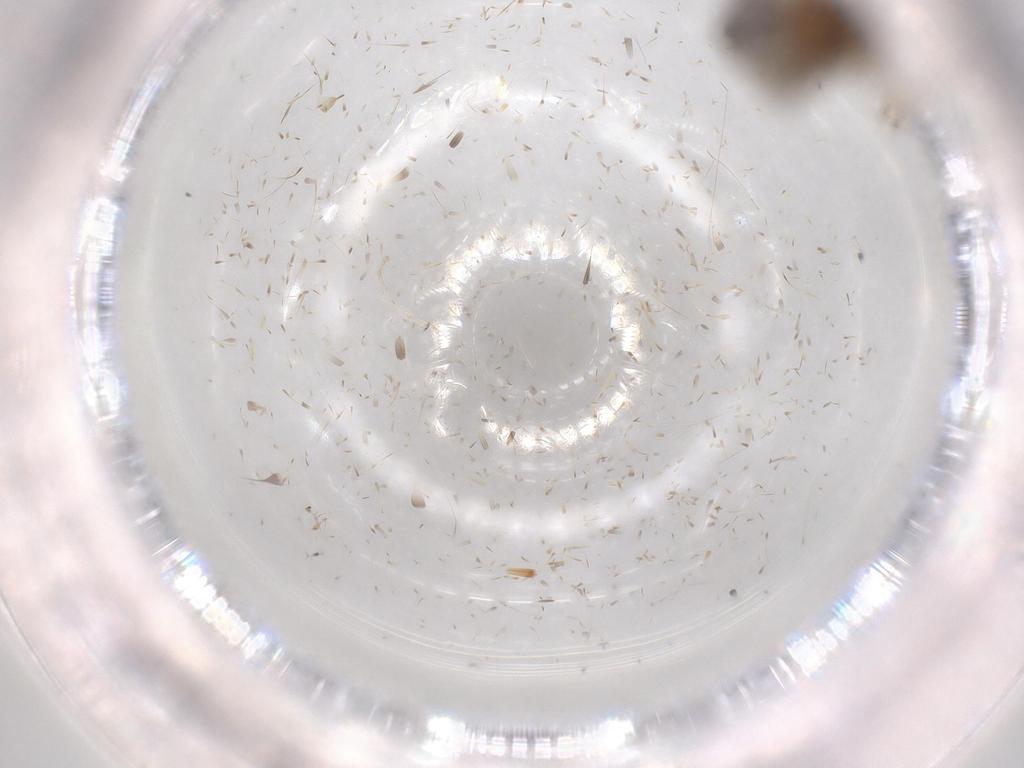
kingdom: Animalia
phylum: Arthropoda
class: Insecta
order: Lepidoptera
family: Tineidae
